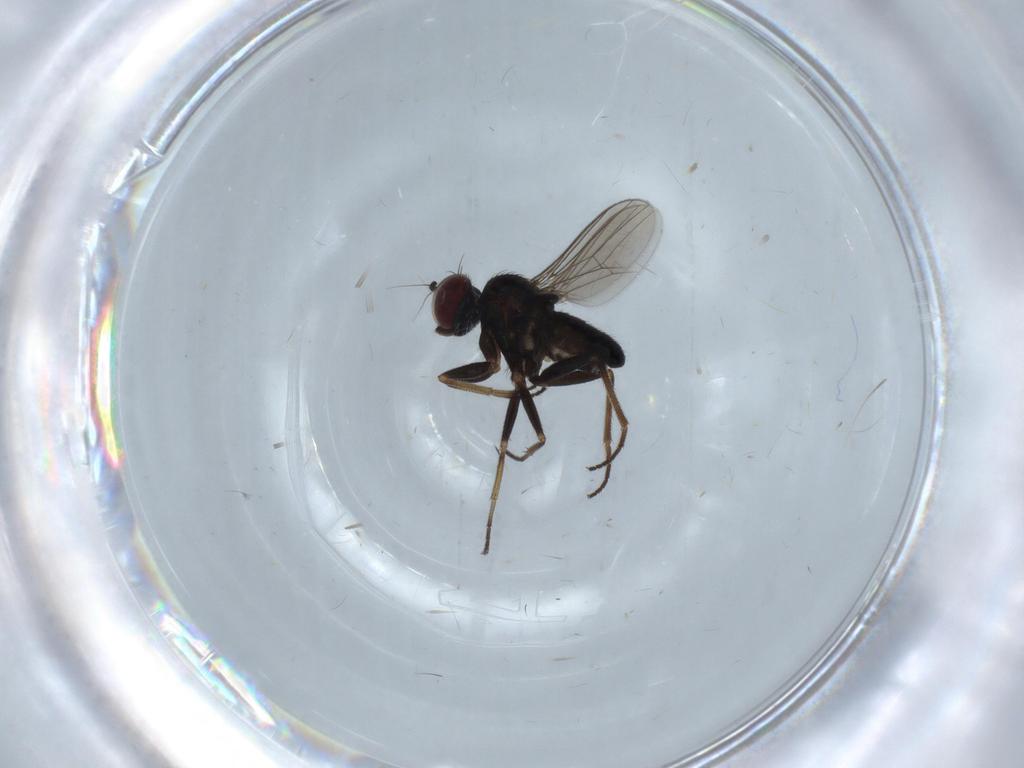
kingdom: Animalia
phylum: Arthropoda
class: Insecta
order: Diptera
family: Dolichopodidae
